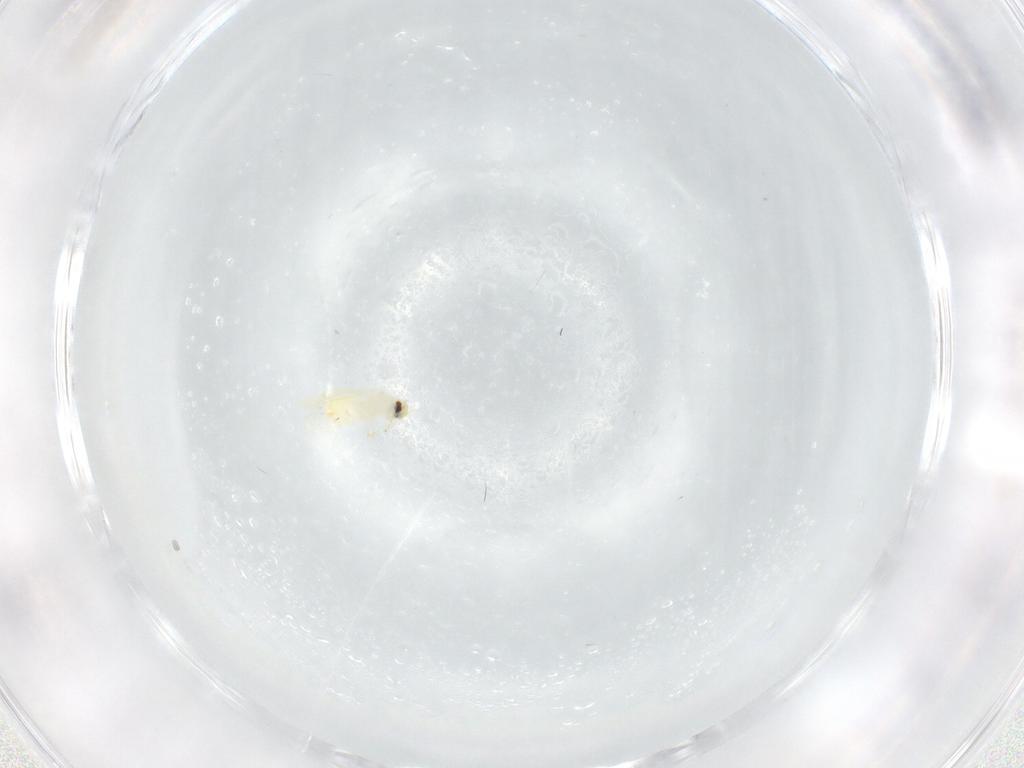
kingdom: Animalia
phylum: Arthropoda
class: Insecta
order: Hemiptera
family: Aleyrodidae
